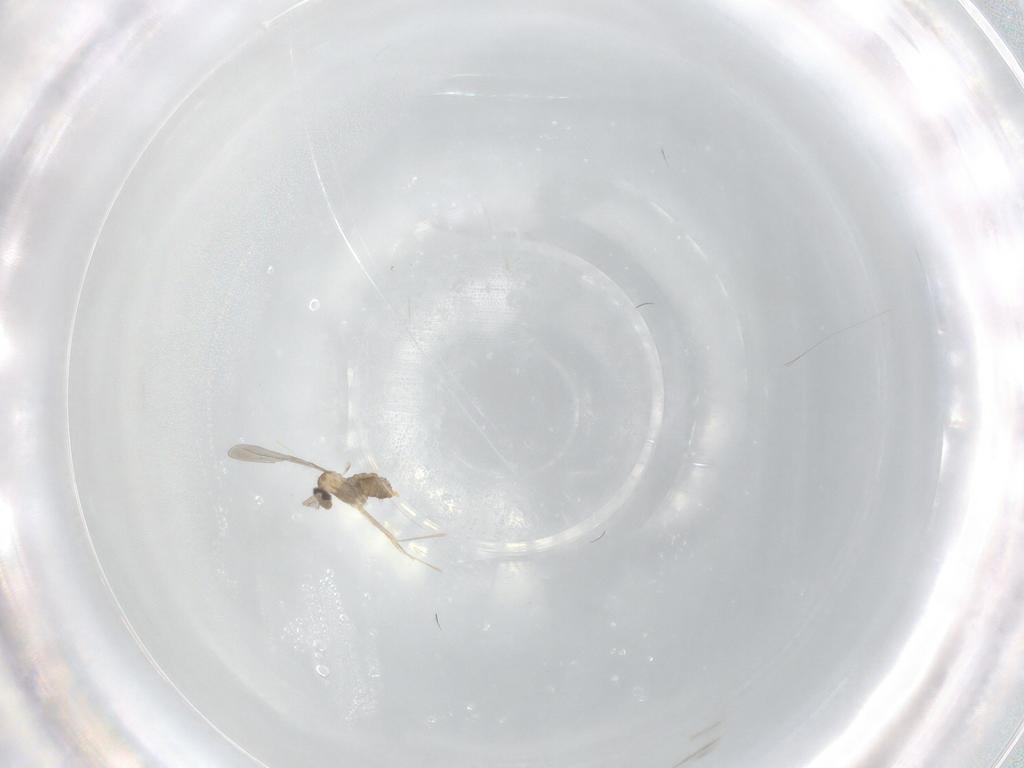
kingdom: Animalia
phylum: Arthropoda
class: Insecta
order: Diptera
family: Cecidomyiidae
